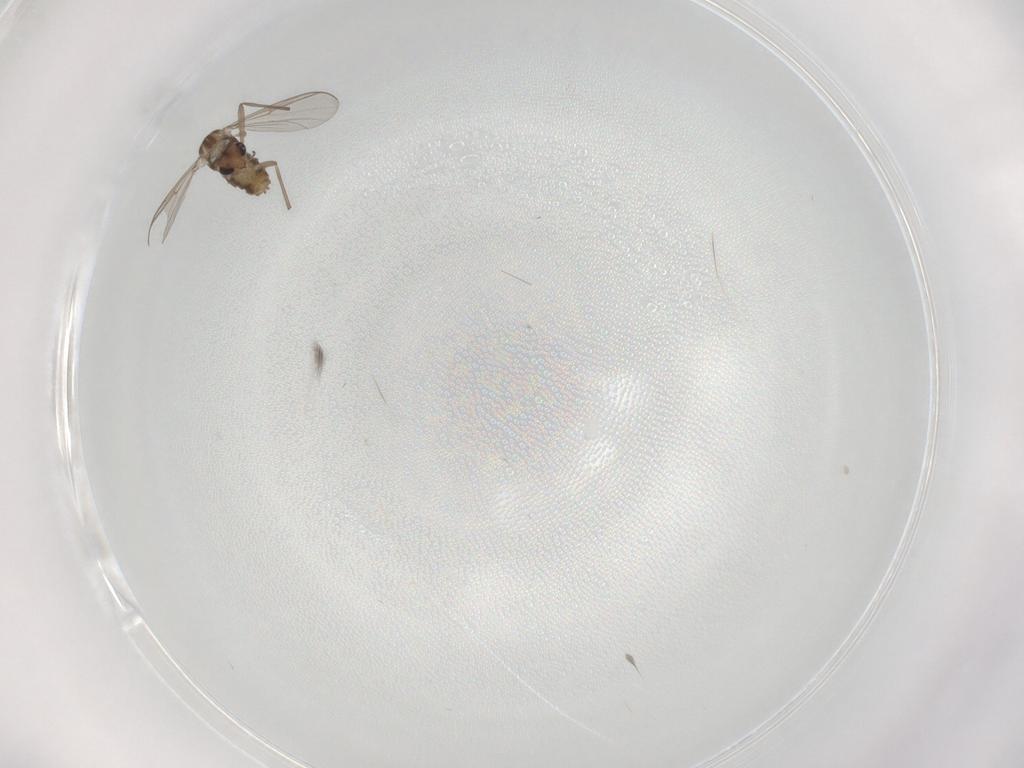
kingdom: Animalia
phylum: Arthropoda
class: Insecta
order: Diptera
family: Chironomidae
